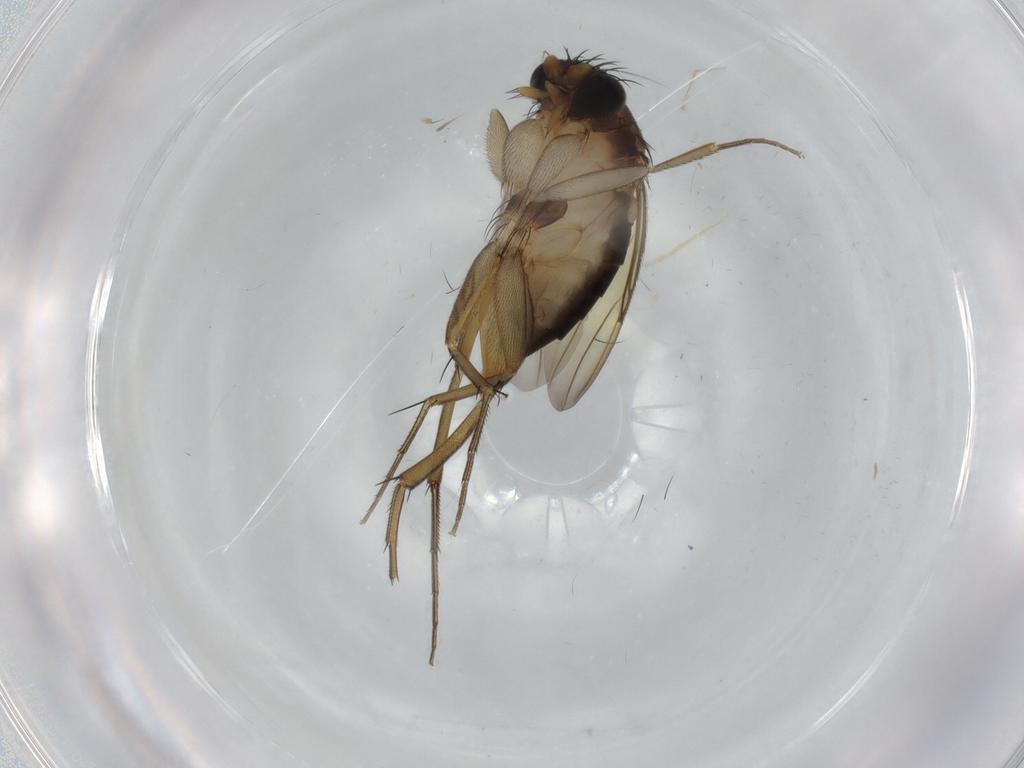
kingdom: Animalia
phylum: Arthropoda
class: Insecta
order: Diptera
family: Chironomidae
